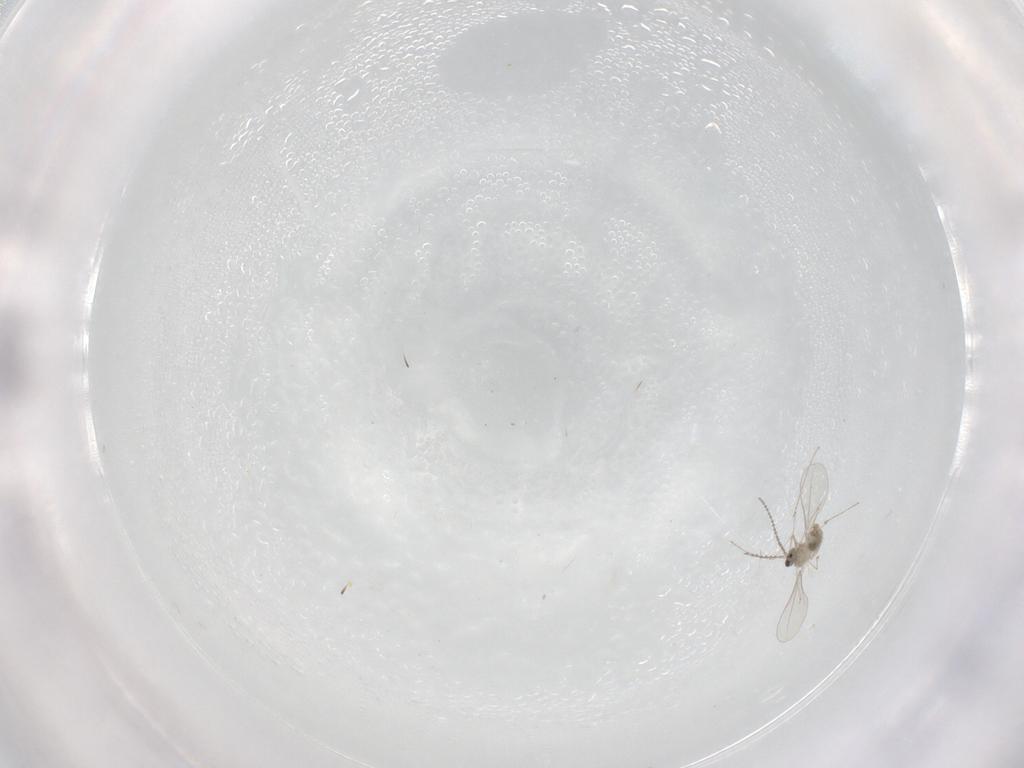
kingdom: Animalia
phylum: Arthropoda
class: Insecta
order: Diptera
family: Cecidomyiidae
